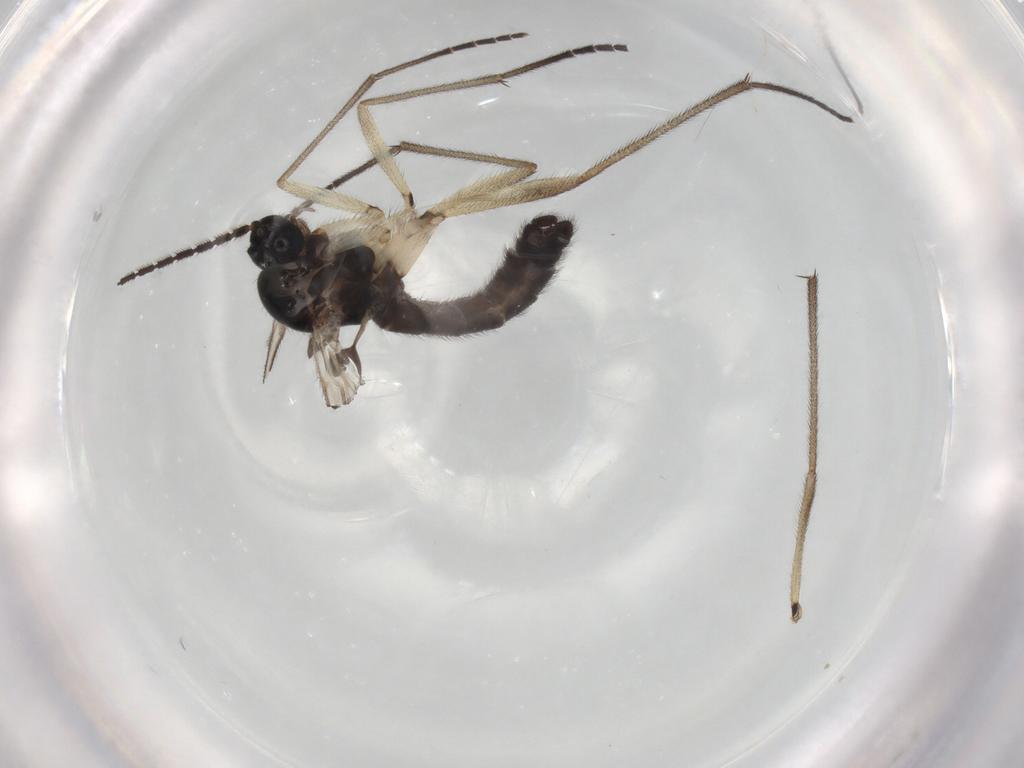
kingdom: Animalia
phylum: Arthropoda
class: Insecta
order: Diptera
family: Sciaridae
